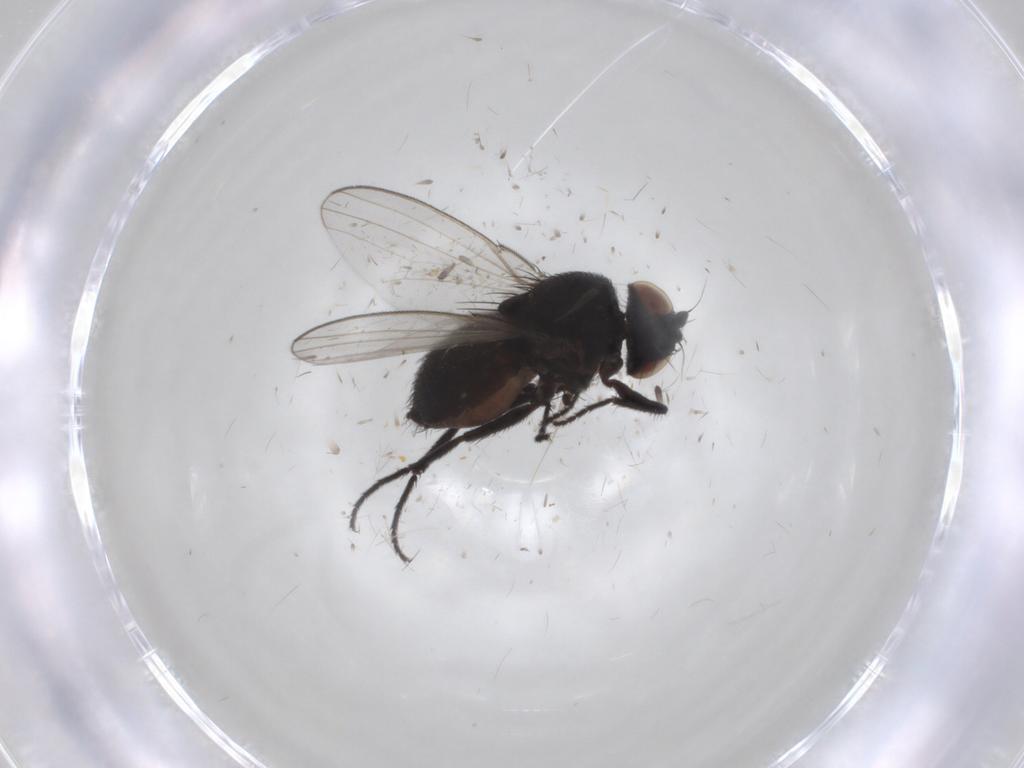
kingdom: Animalia
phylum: Arthropoda
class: Insecta
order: Diptera
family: Milichiidae
